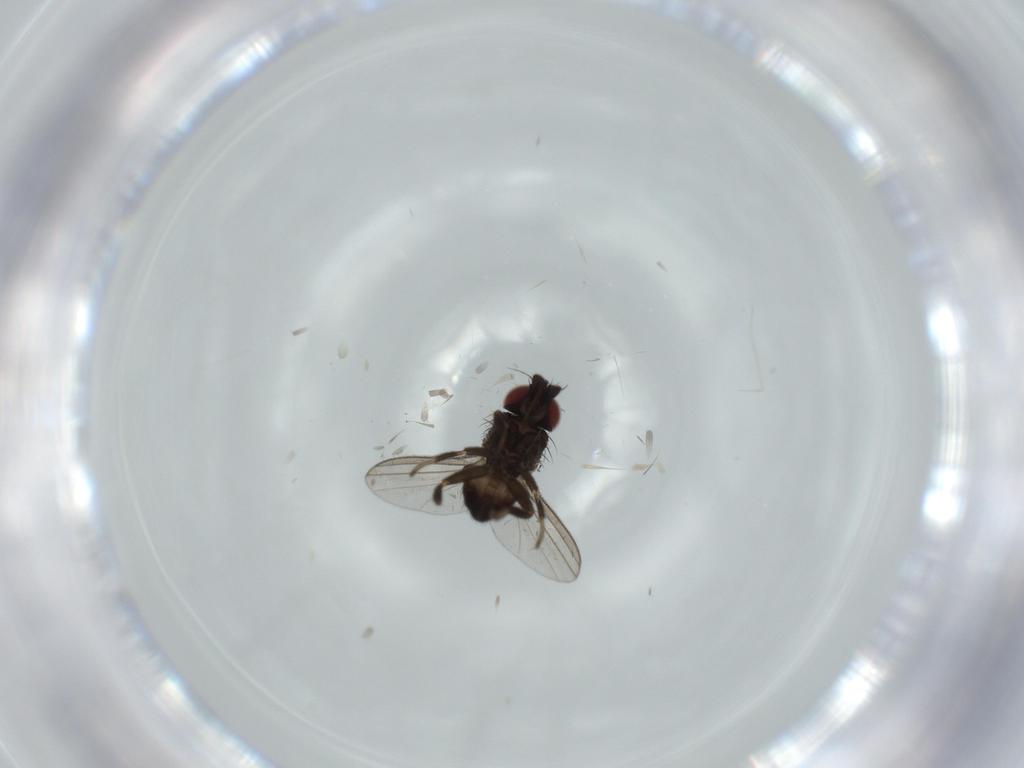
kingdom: Animalia
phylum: Arthropoda
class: Insecta
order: Diptera
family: Milichiidae
